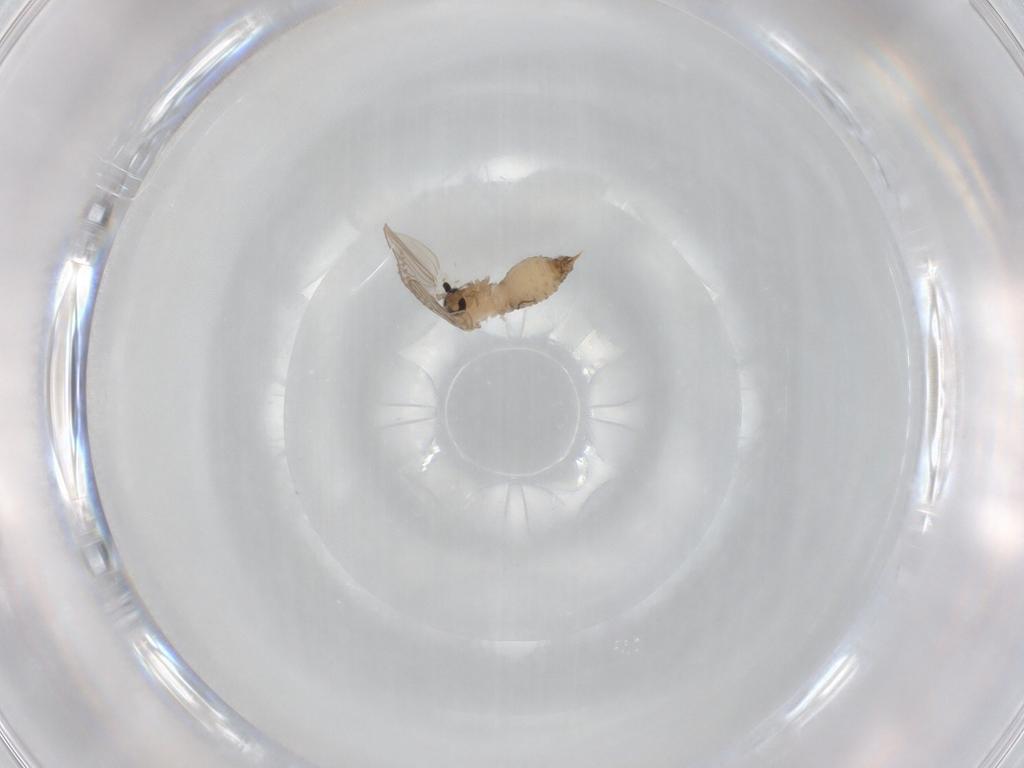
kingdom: Animalia
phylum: Arthropoda
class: Insecta
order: Diptera
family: Psychodidae
